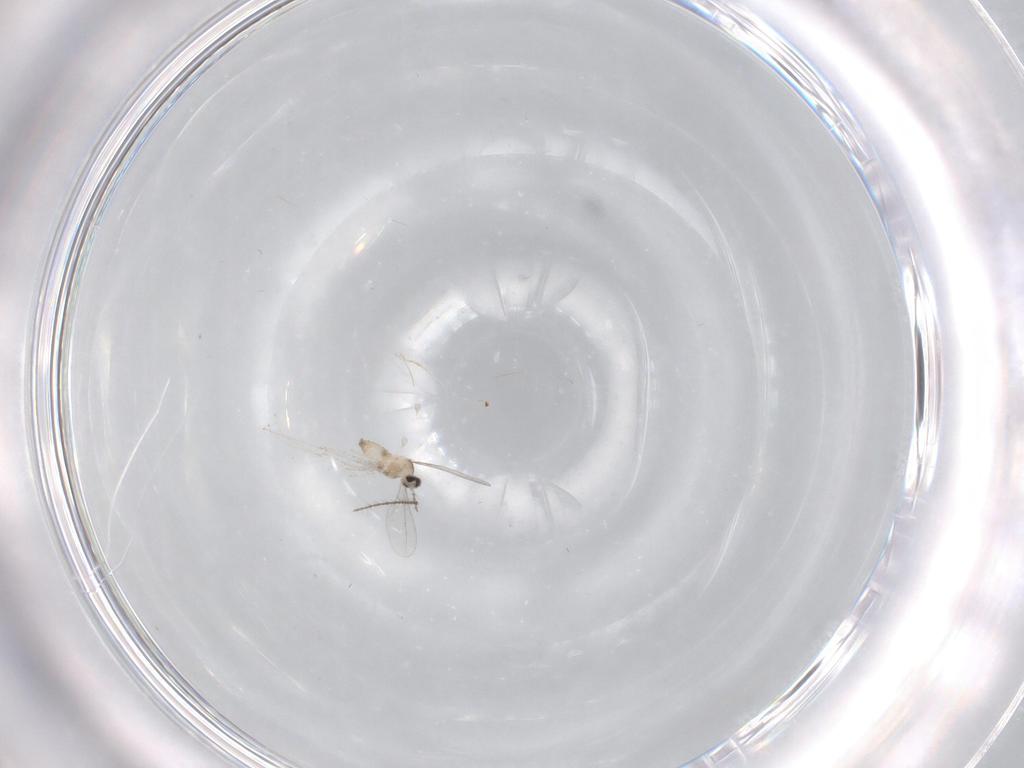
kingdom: Animalia
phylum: Arthropoda
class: Insecta
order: Diptera
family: Cecidomyiidae
